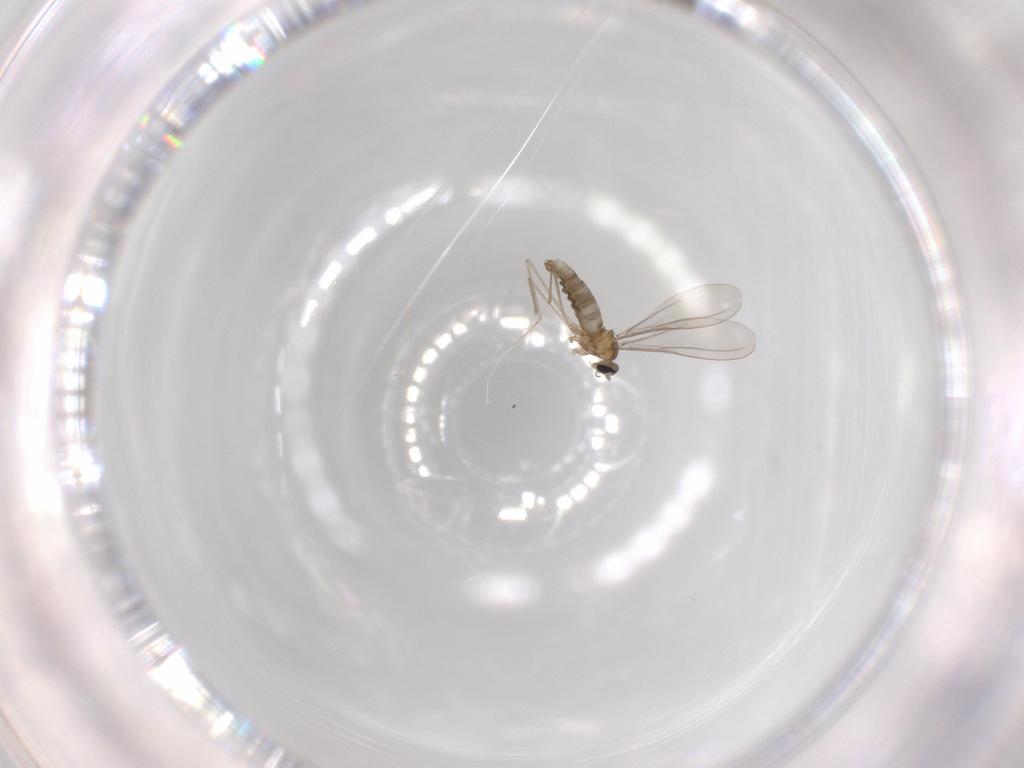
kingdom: Animalia
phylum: Arthropoda
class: Insecta
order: Diptera
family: Cecidomyiidae
